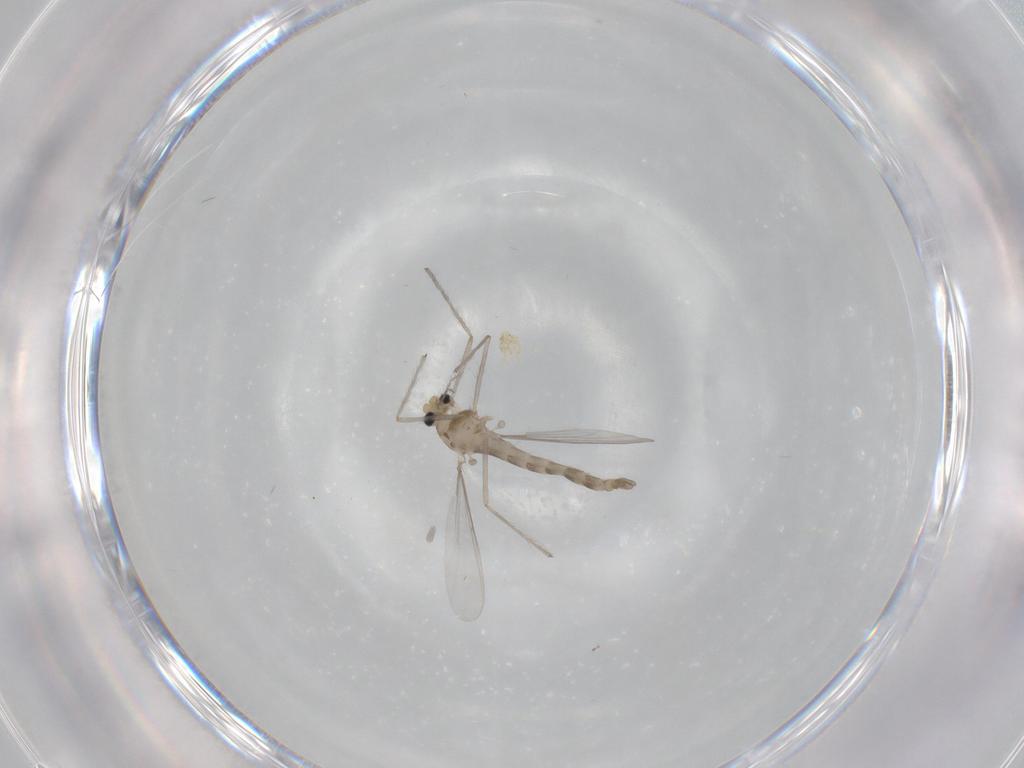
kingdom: Animalia
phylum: Arthropoda
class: Insecta
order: Diptera
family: Chironomidae
